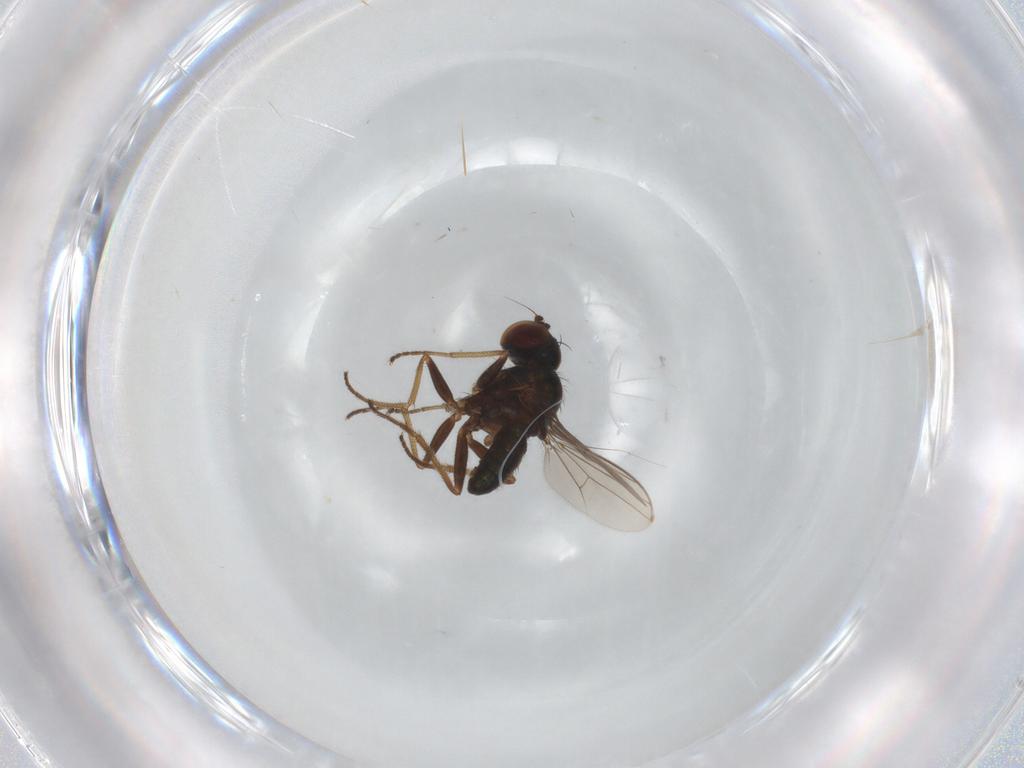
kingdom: Animalia
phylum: Arthropoda
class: Insecta
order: Diptera
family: Dolichopodidae
